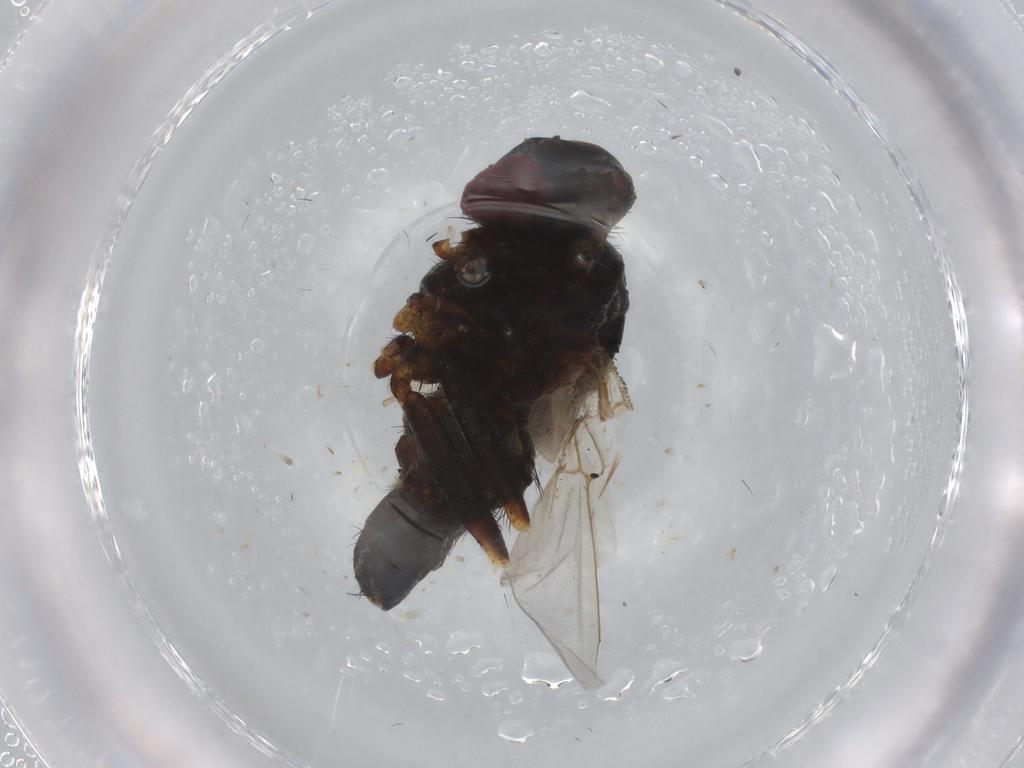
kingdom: Animalia
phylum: Arthropoda
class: Insecta
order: Diptera
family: Muscidae
